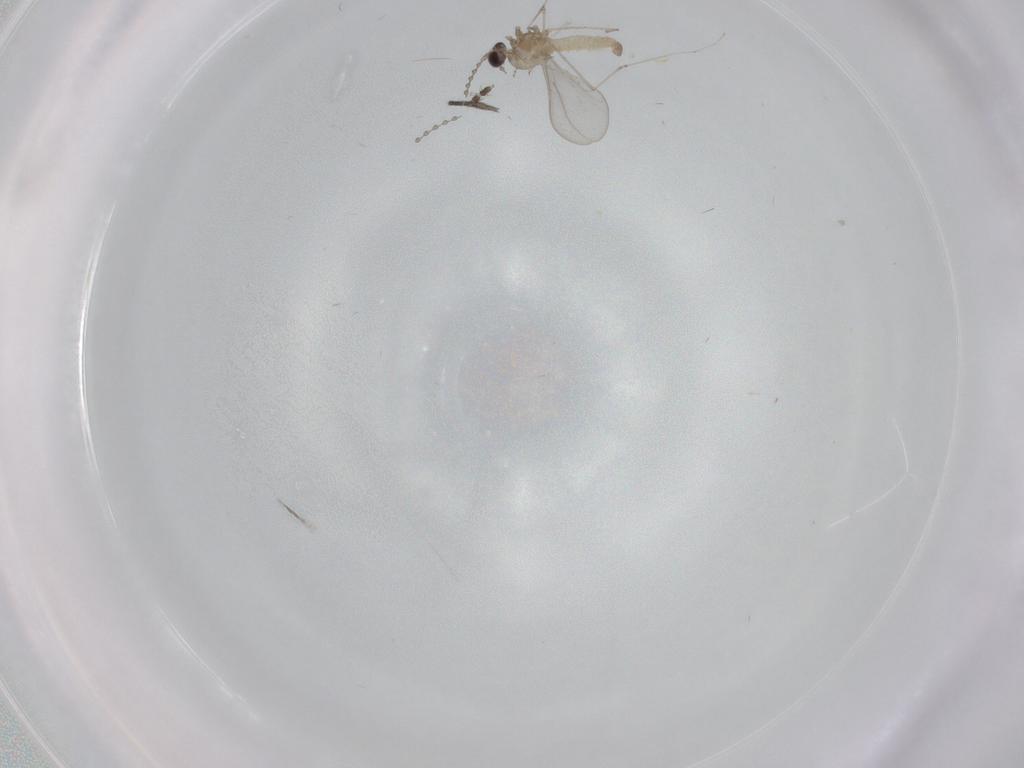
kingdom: Animalia
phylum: Arthropoda
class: Insecta
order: Diptera
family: Cecidomyiidae
